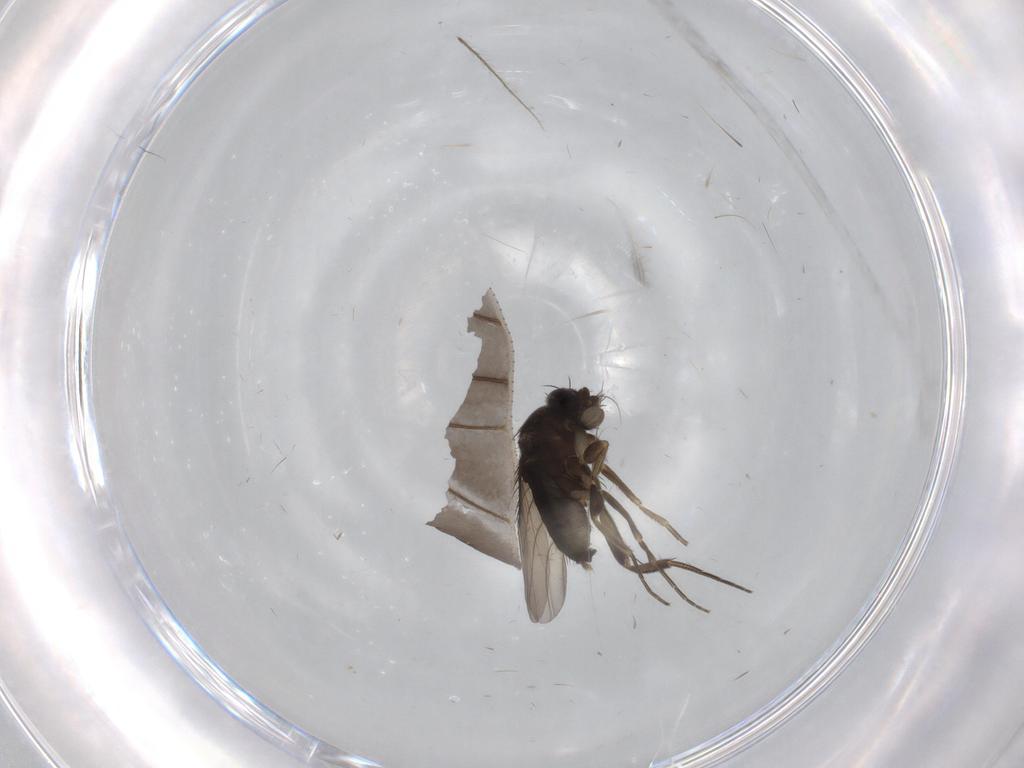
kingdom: Animalia
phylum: Arthropoda
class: Insecta
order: Diptera
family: Phoridae
